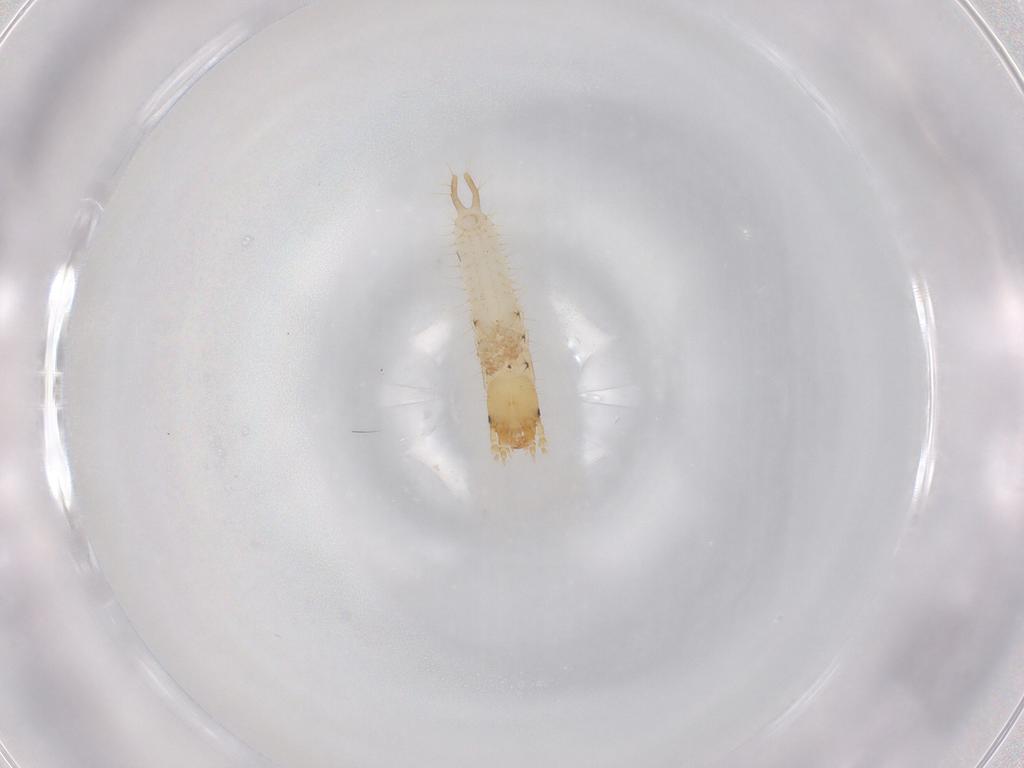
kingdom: Animalia
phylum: Arthropoda
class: Insecta
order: Coleoptera
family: Carabidae
